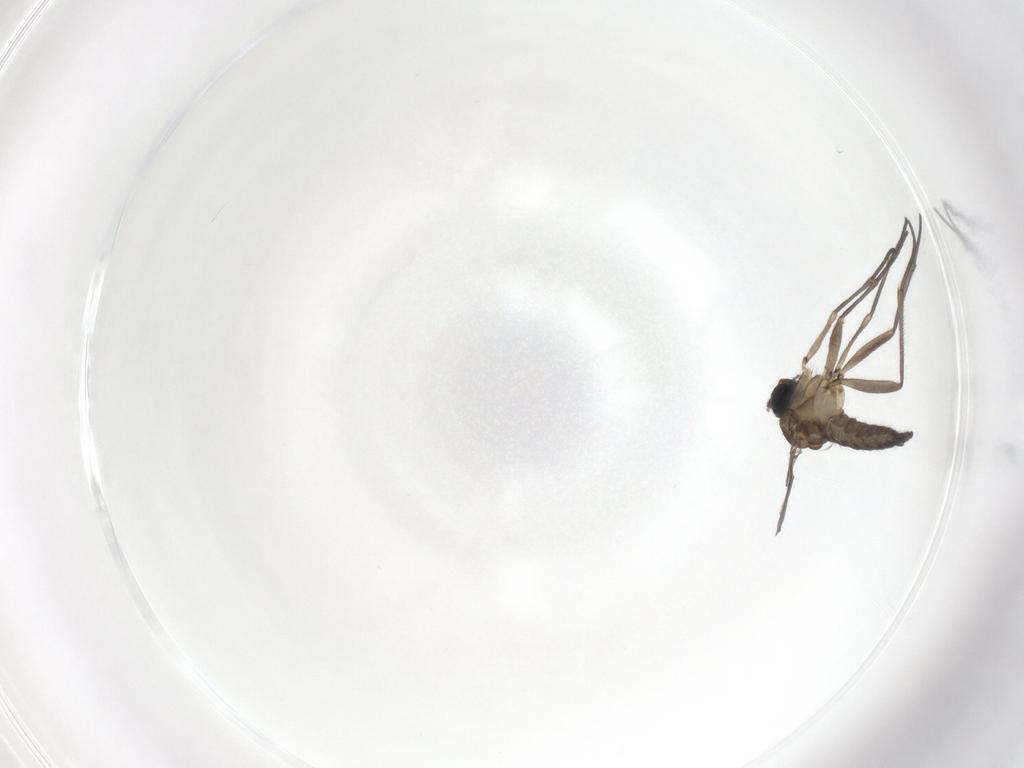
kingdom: Animalia
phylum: Arthropoda
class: Insecta
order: Diptera
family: Sciaridae
